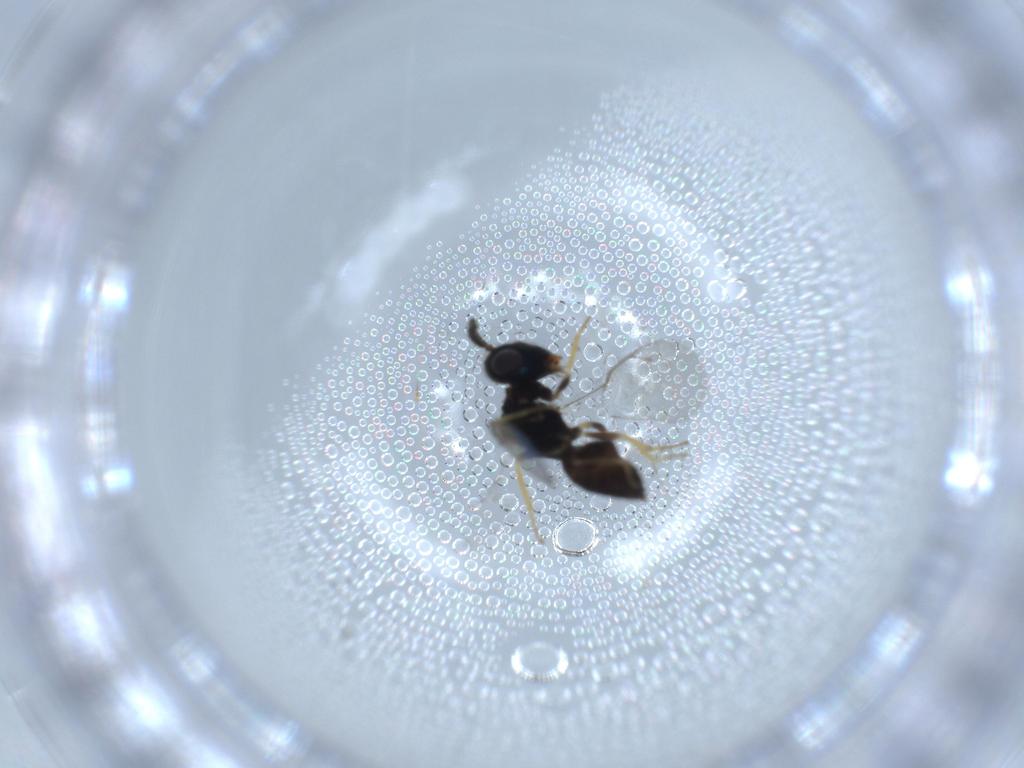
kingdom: Animalia
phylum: Arthropoda
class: Insecta
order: Hymenoptera
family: Pteromalidae
